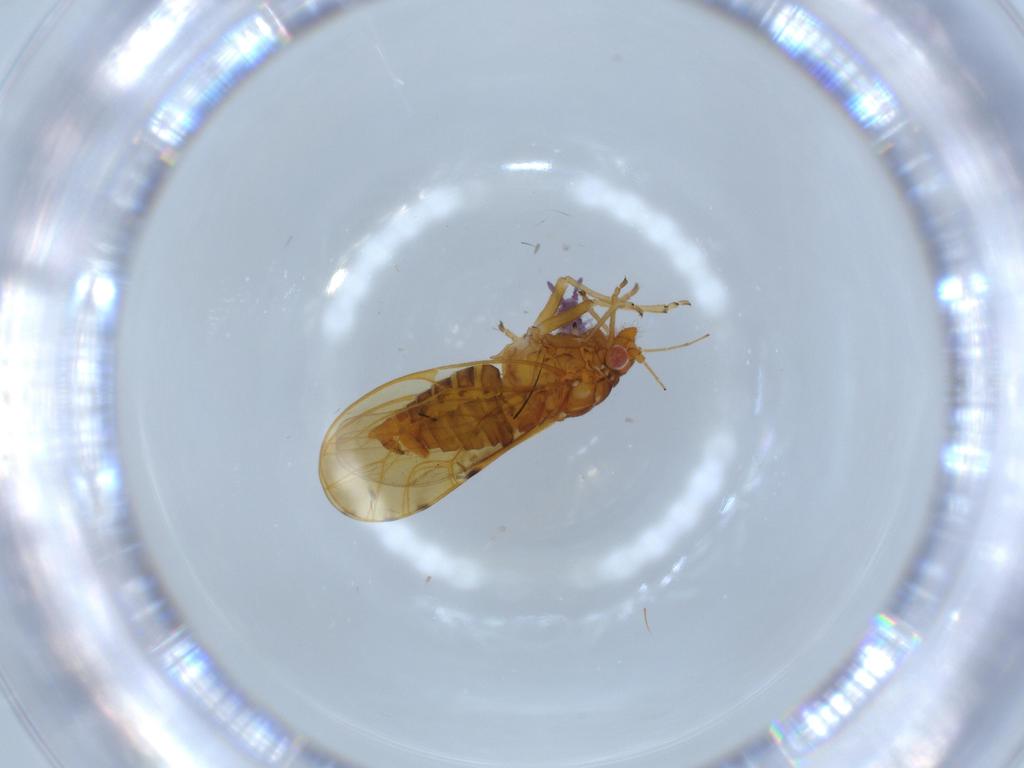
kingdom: Animalia
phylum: Arthropoda
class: Insecta
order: Hemiptera
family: Psylloidea_incertae_sedis
